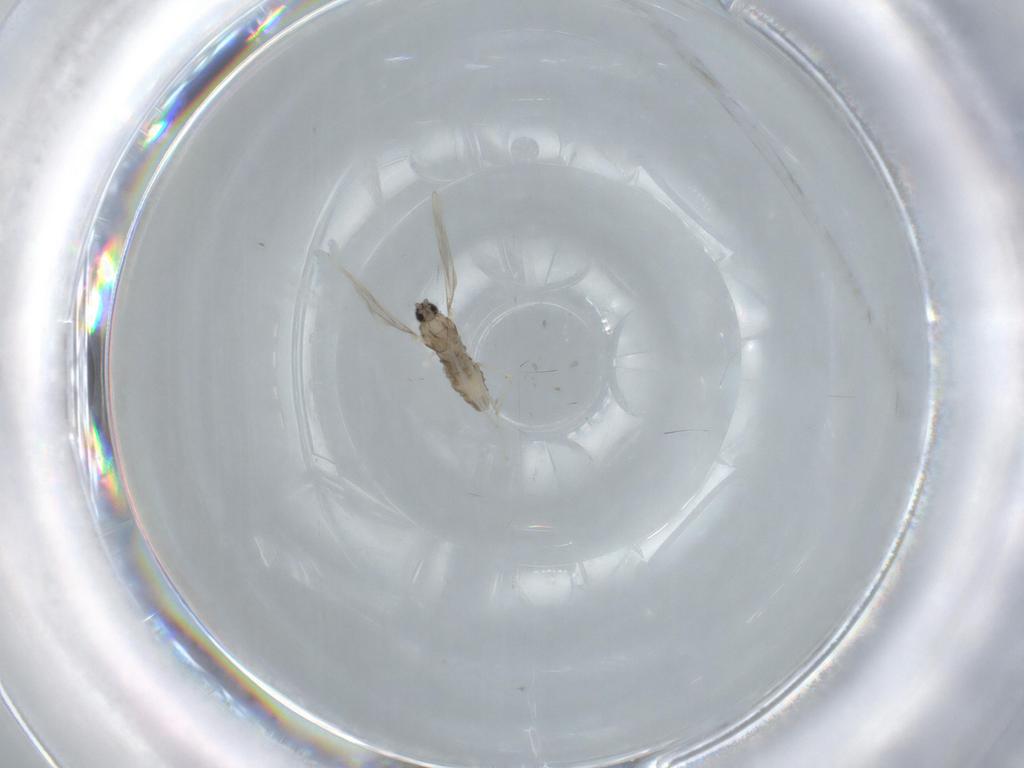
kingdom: Animalia
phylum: Arthropoda
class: Insecta
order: Diptera
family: Cecidomyiidae
